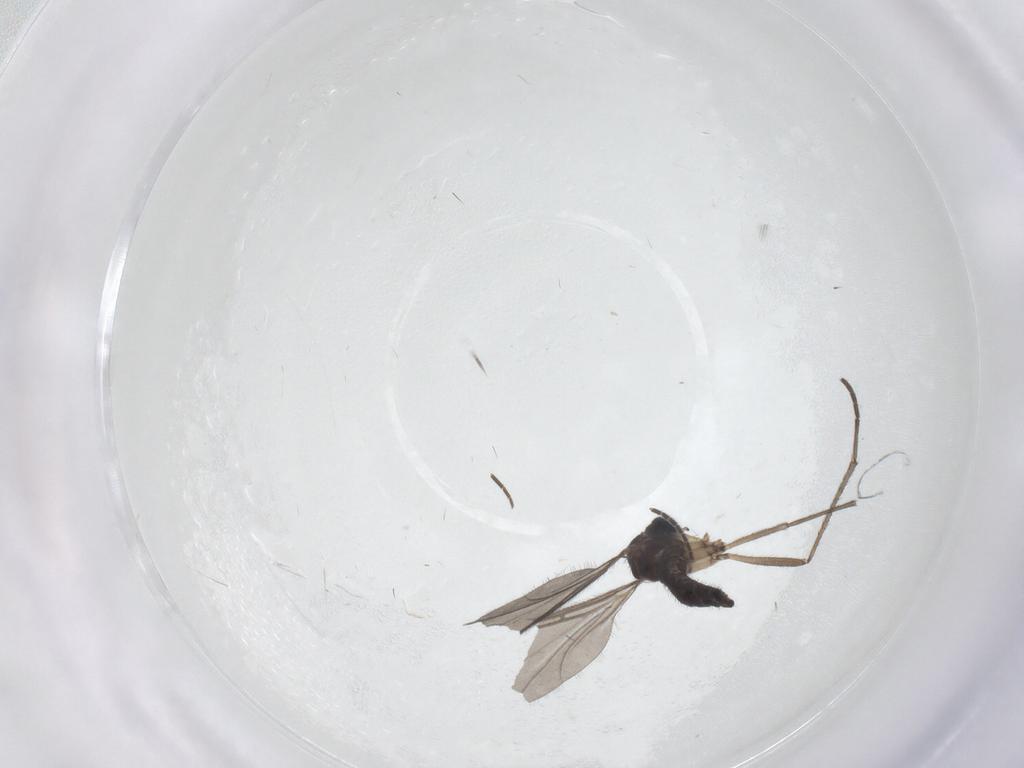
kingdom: Animalia
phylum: Arthropoda
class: Insecta
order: Diptera
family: Sciaridae
